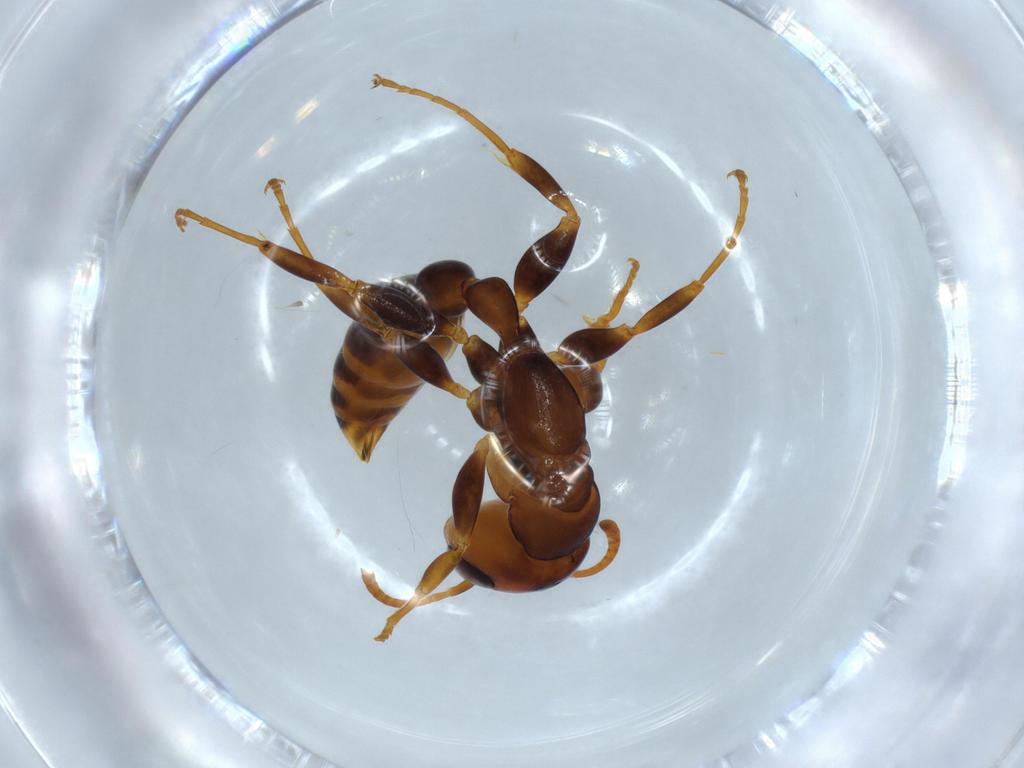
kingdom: Animalia
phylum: Arthropoda
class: Insecta
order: Hymenoptera
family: Formicidae
